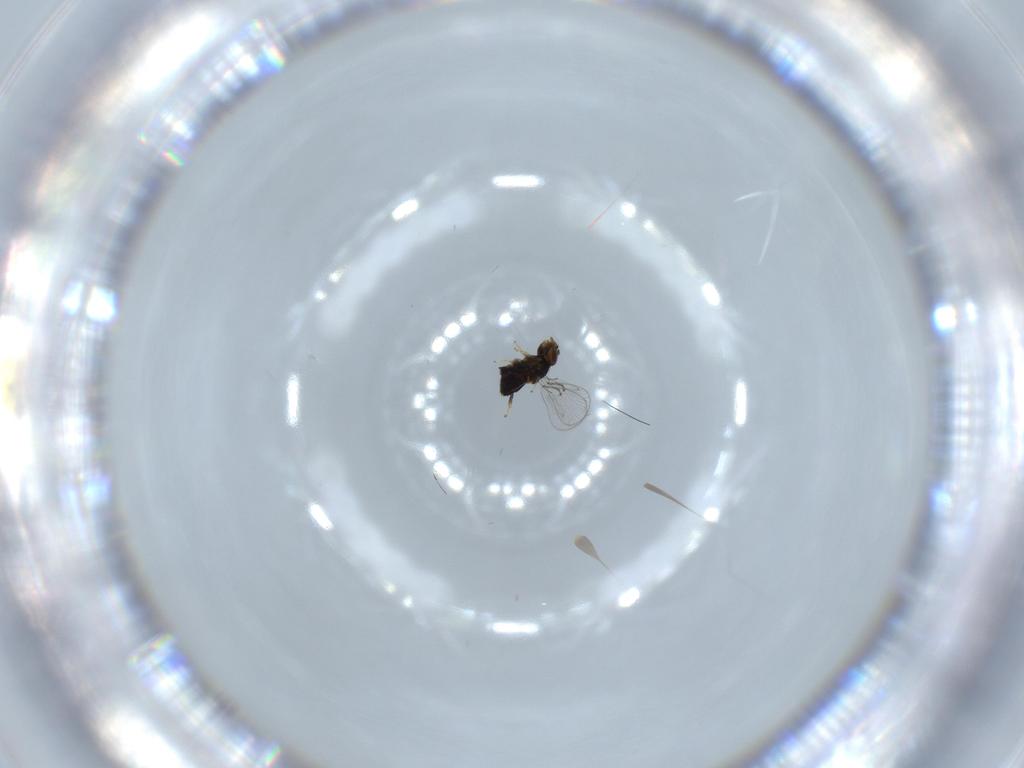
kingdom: Animalia
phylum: Arthropoda
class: Insecta
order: Hymenoptera
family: Trichogrammatidae
